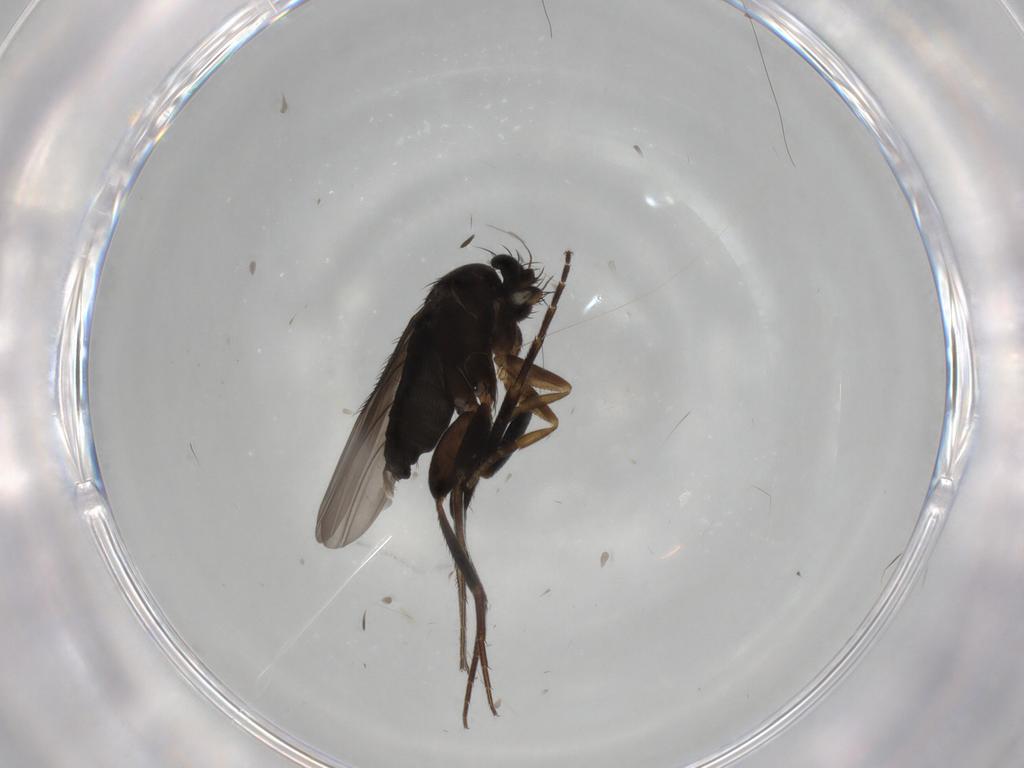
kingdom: Animalia
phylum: Arthropoda
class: Insecta
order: Diptera
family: Phoridae
